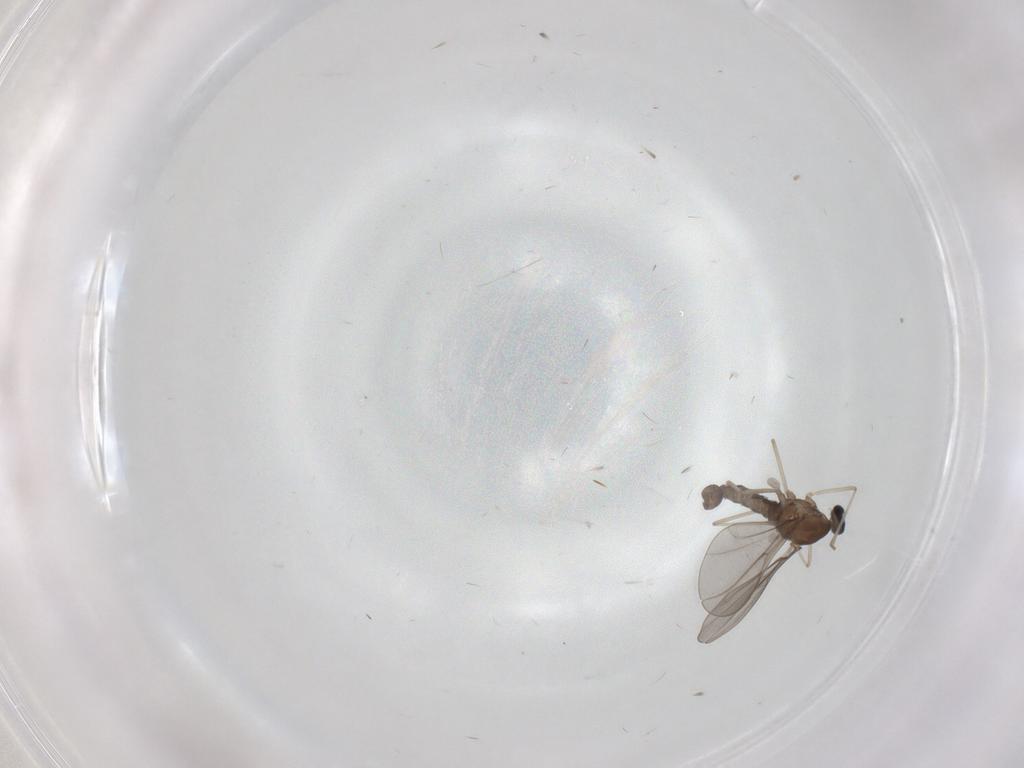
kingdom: Animalia
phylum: Arthropoda
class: Insecta
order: Diptera
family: Cecidomyiidae
